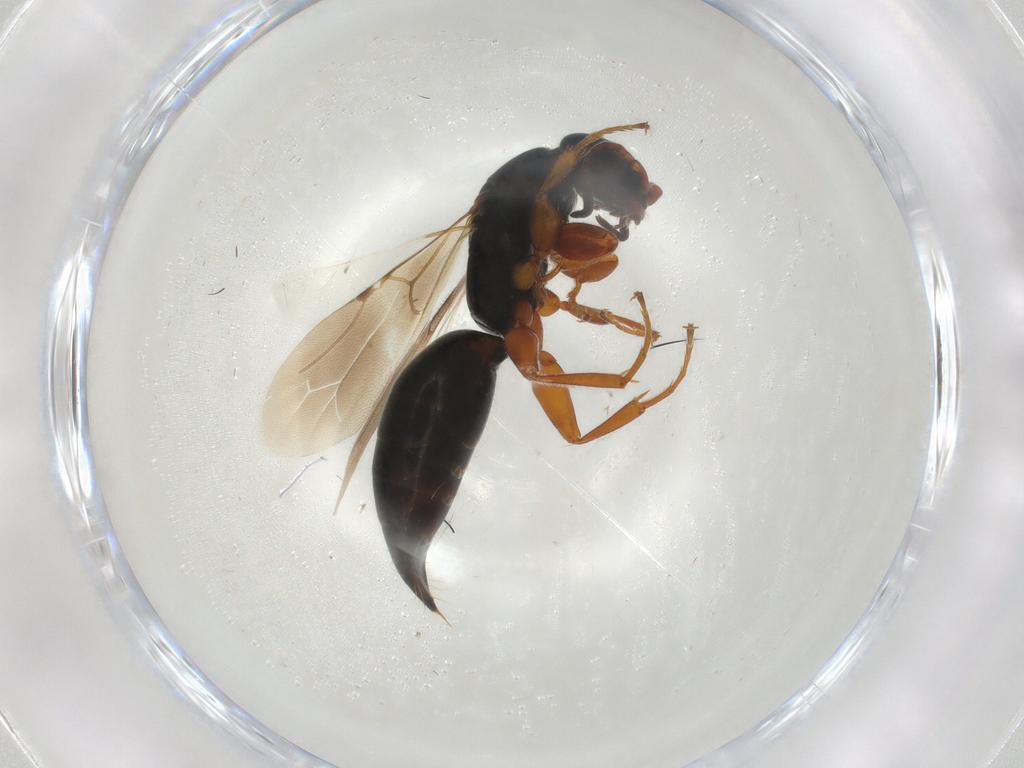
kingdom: Animalia
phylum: Arthropoda
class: Insecta
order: Hymenoptera
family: Bethylidae
